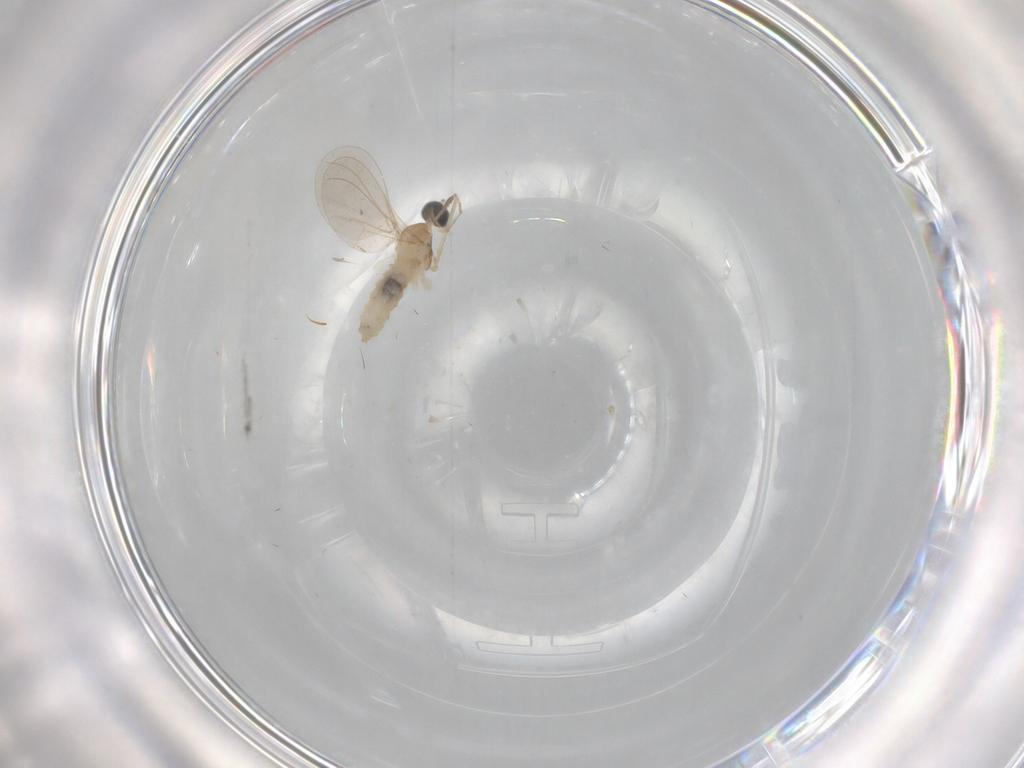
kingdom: Animalia
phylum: Arthropoda
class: Insecta
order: Diptera
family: Cecidomyiidae
